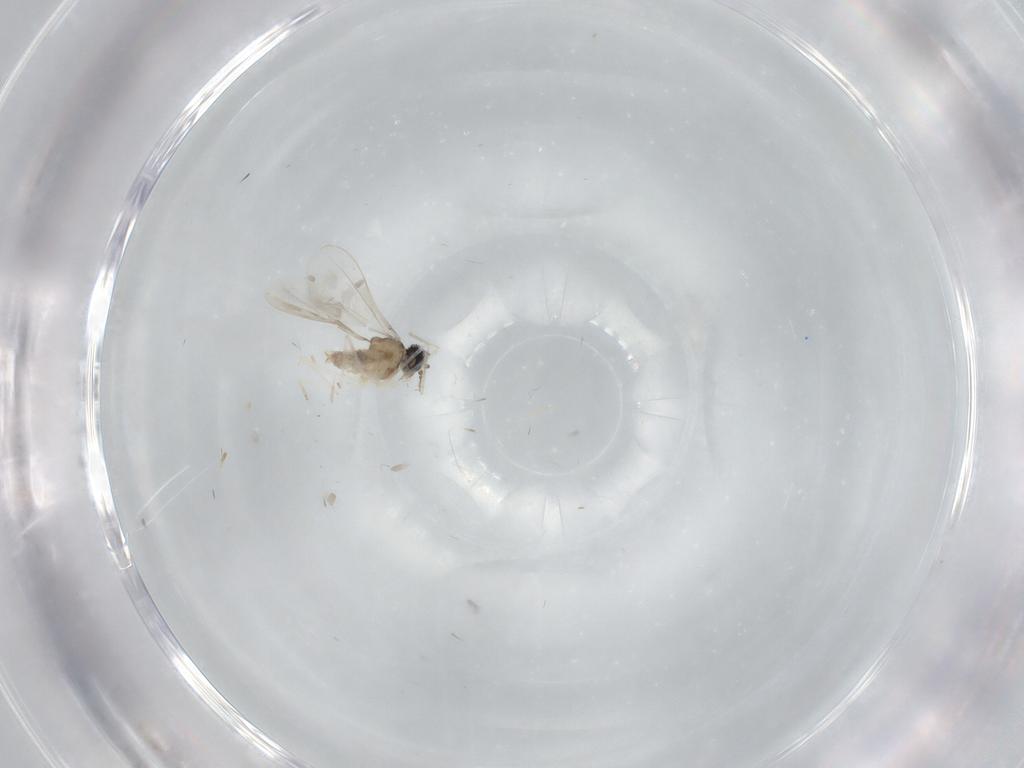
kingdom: Animalia
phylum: Arthropoda
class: Insecta
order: Diptera
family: Cecidomyiidae
